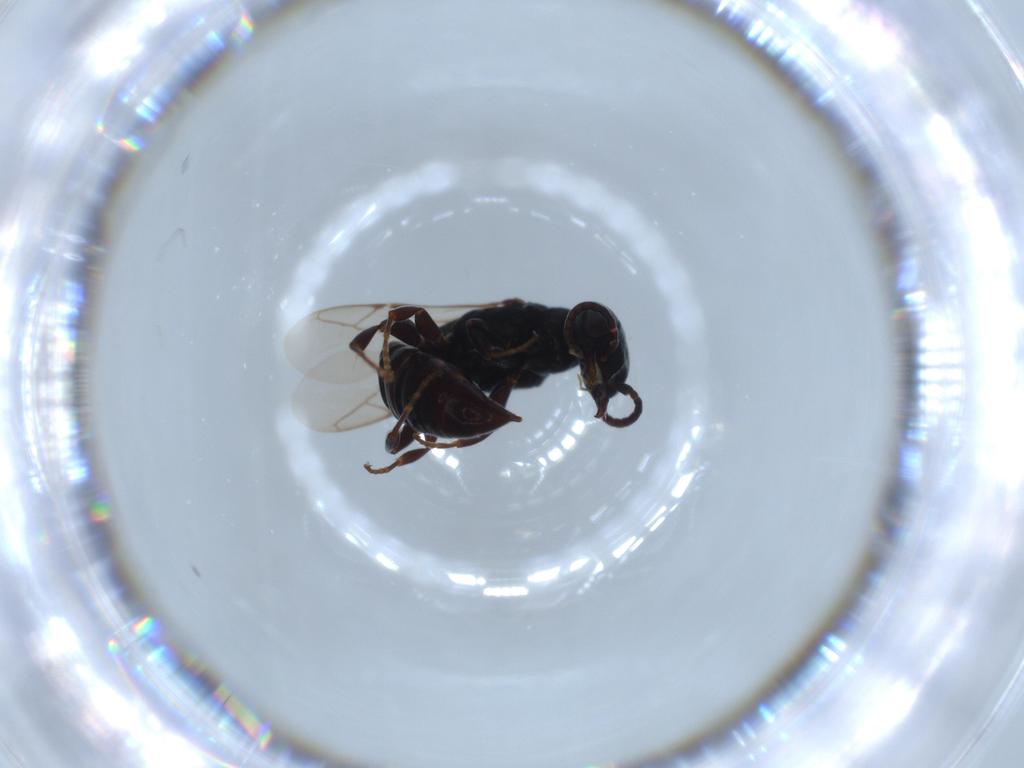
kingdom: Animalia
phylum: Arthropoda
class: Insecta
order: Hymenoptera
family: Crabronidae
